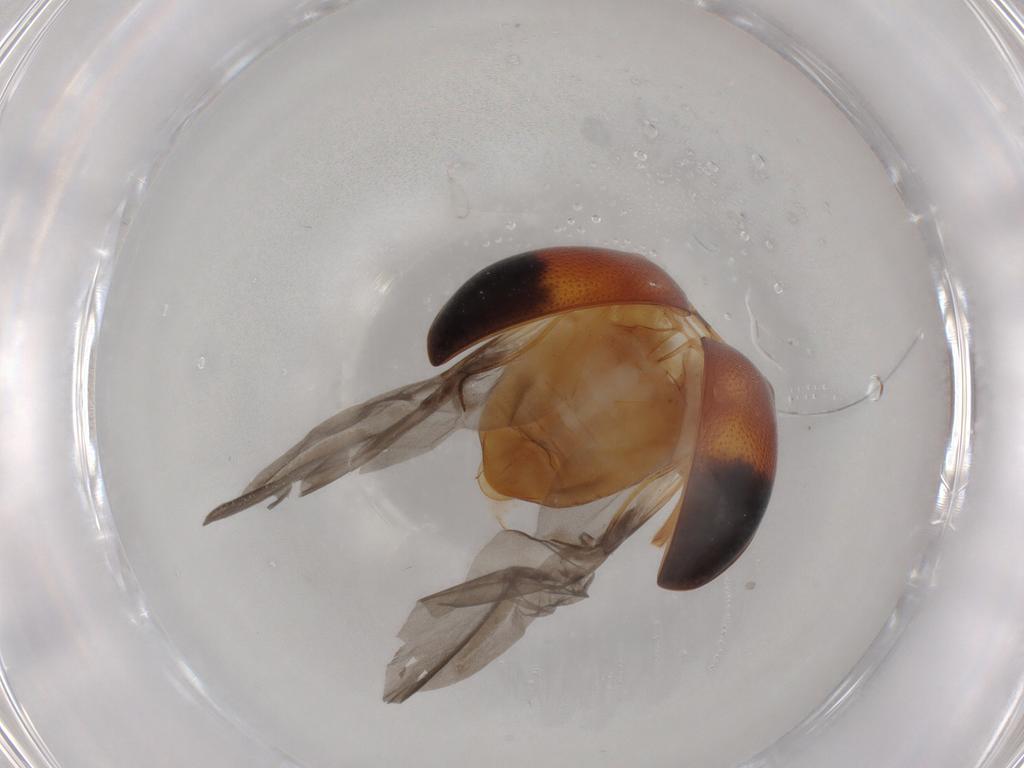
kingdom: Animalia
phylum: Arthropoda
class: Insecta
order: Coleoptera
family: Chrysomelidae
